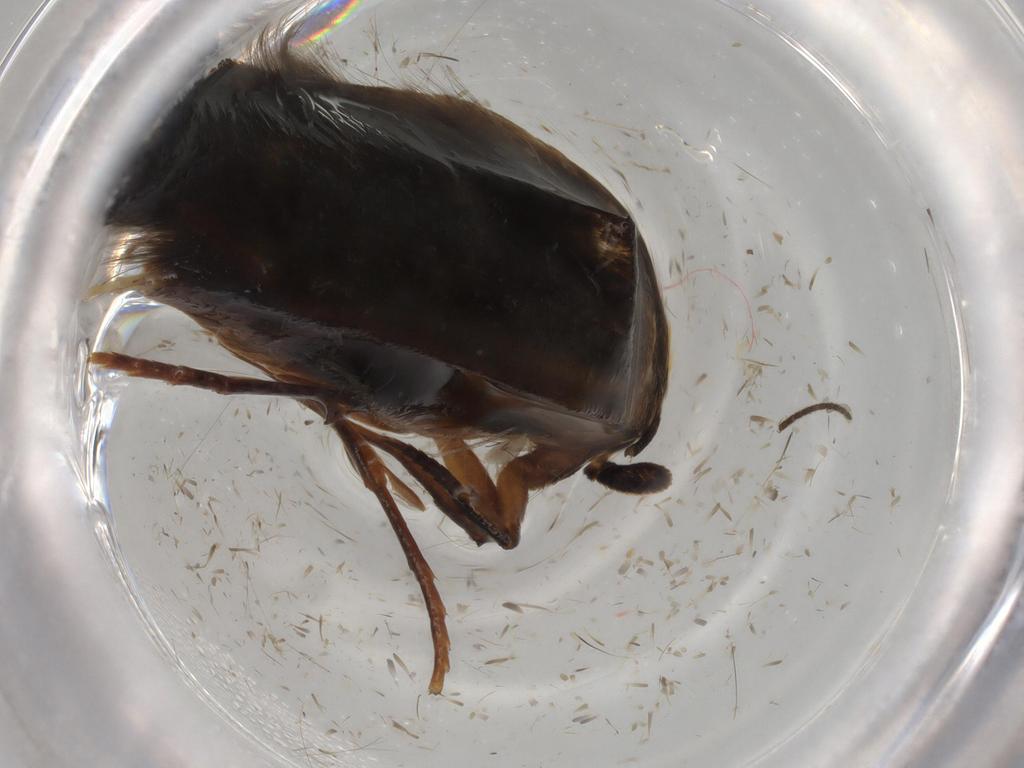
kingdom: Animalia
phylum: Arthropoda
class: Insecta
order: Lepidoptera
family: Tineidae
